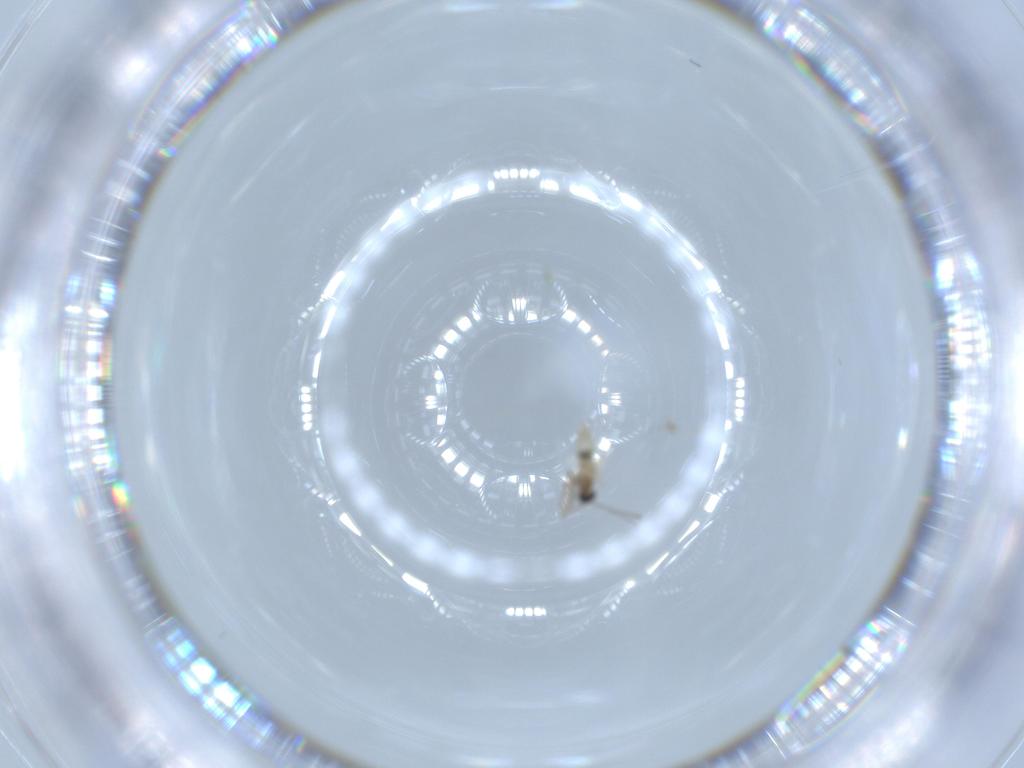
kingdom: Animalia
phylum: Arthropoda
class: Insecta
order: Diptera
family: Cecidomyiidae
